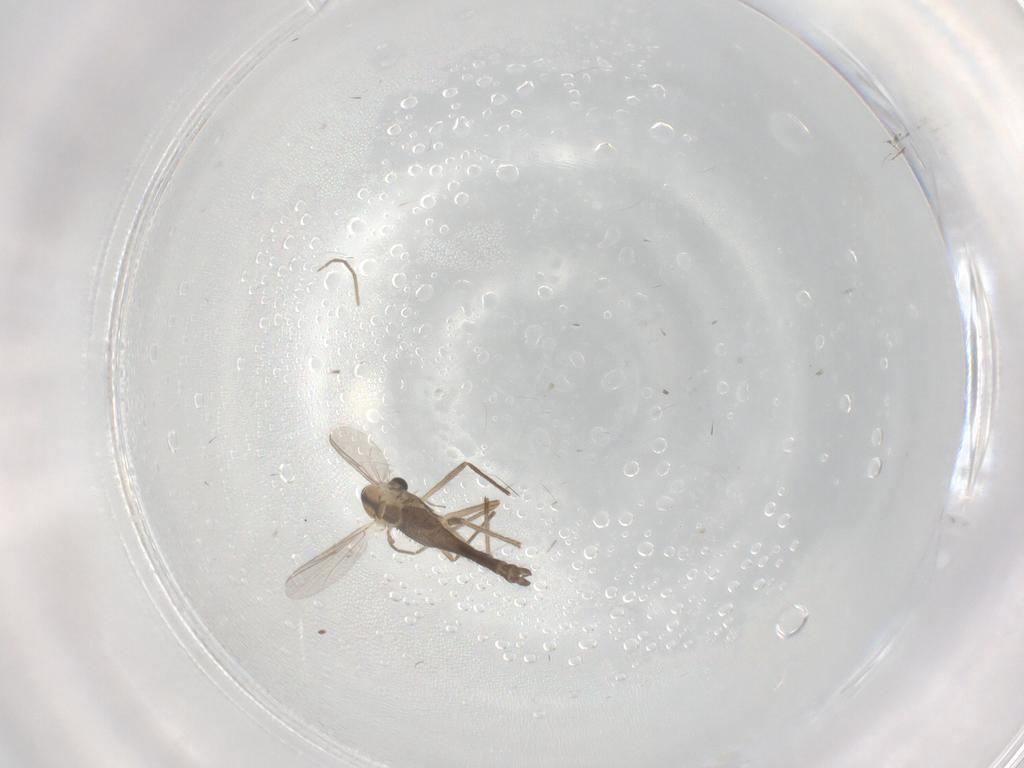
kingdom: Animalia
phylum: Arthropoda
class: Insecta
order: Diptera
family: Chironomidae
